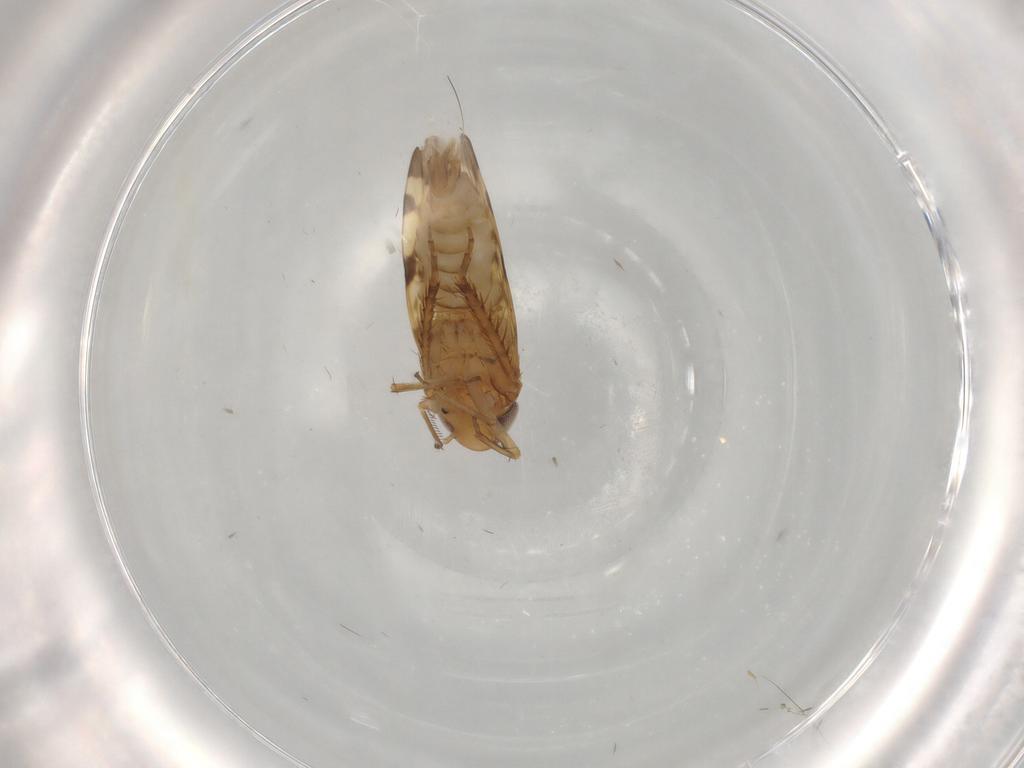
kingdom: Animalia
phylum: Arthropoda
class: Insecta
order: Hemiptera
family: Cicadellidae
